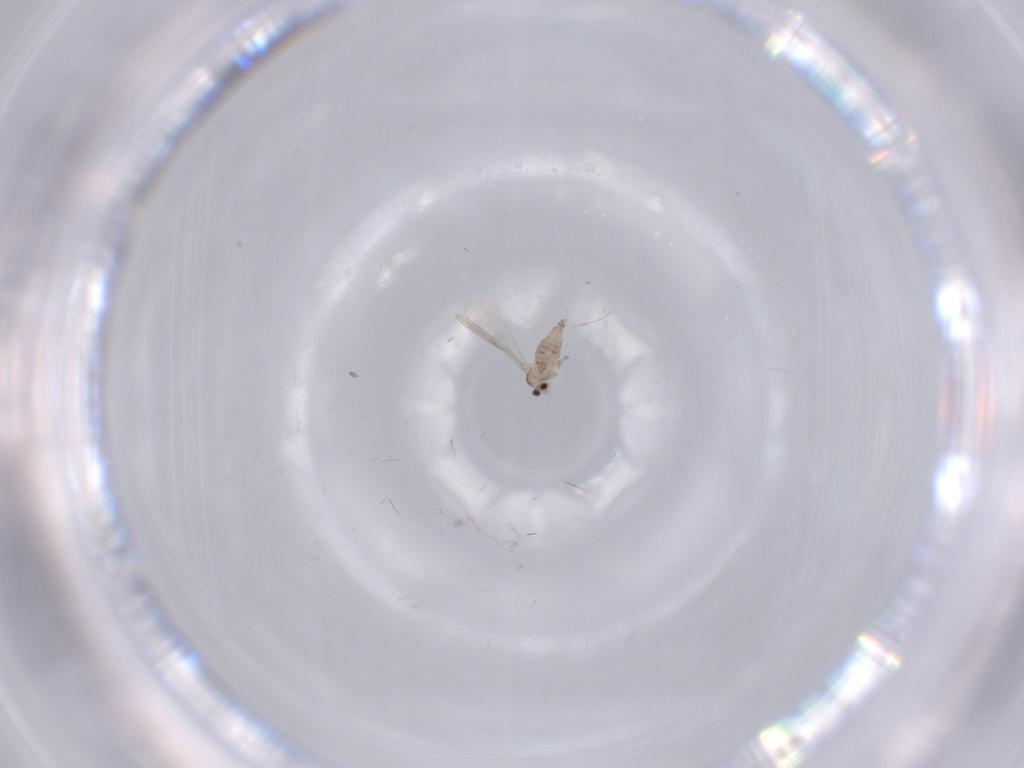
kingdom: Animalia
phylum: Arthropoda
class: Insecta
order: Diptera
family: Cecidomyiidae
